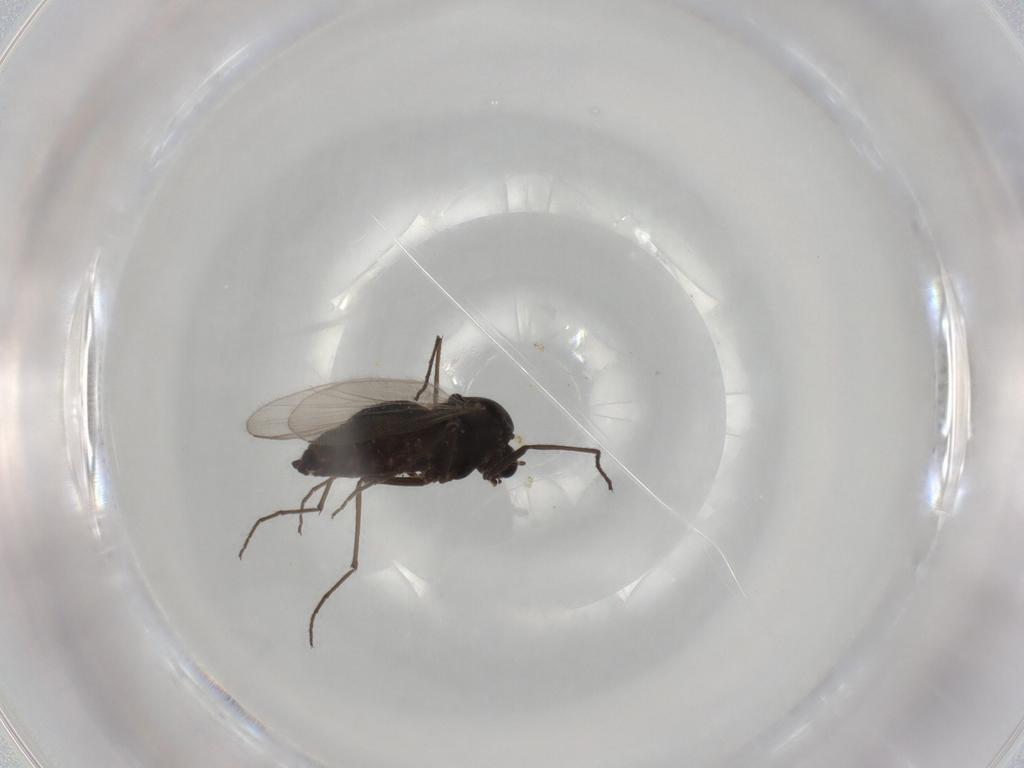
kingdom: Animalia
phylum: Arthropoda
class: Insecta
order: Diptera
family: Chironomidae
